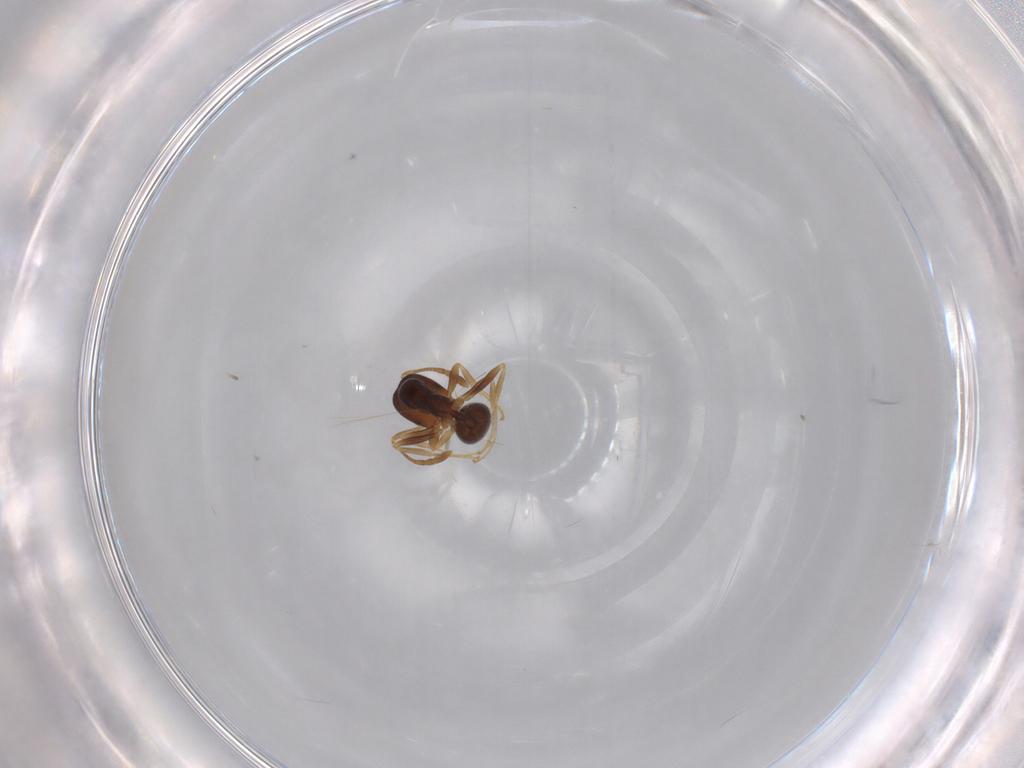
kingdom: Animalia
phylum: Arthropoda
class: Insecta
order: Hymenoptera
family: Formicidae
